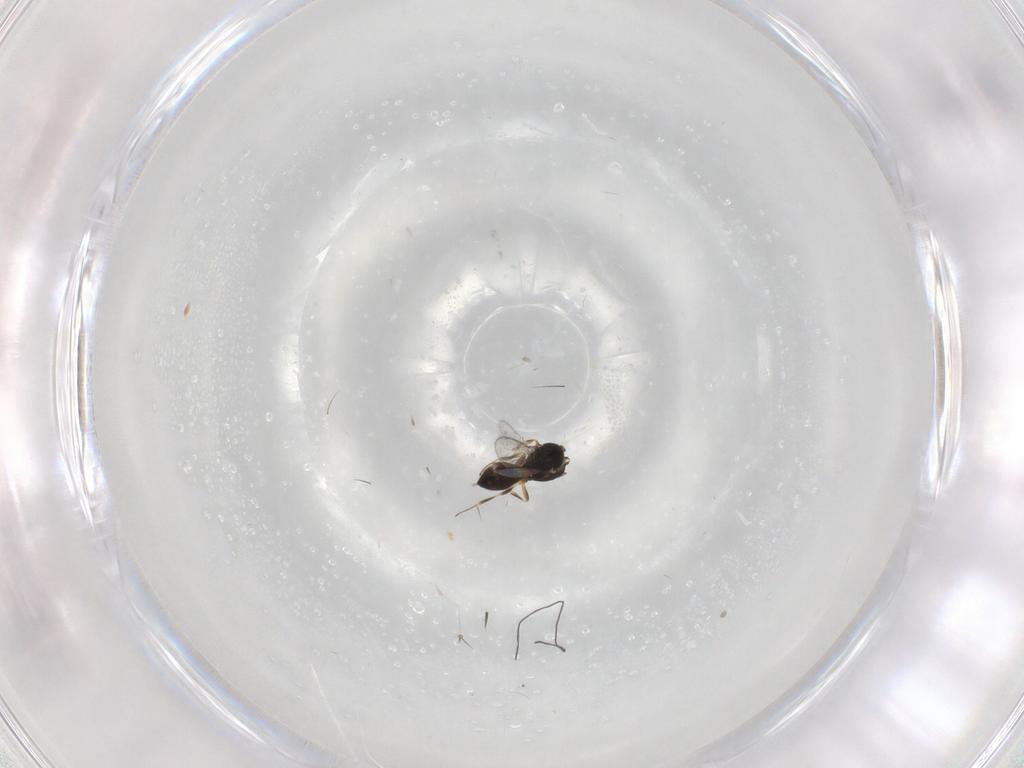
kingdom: Animalia
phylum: Arthropoda
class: Insecta
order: Hymenoptera
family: Scelionidae
